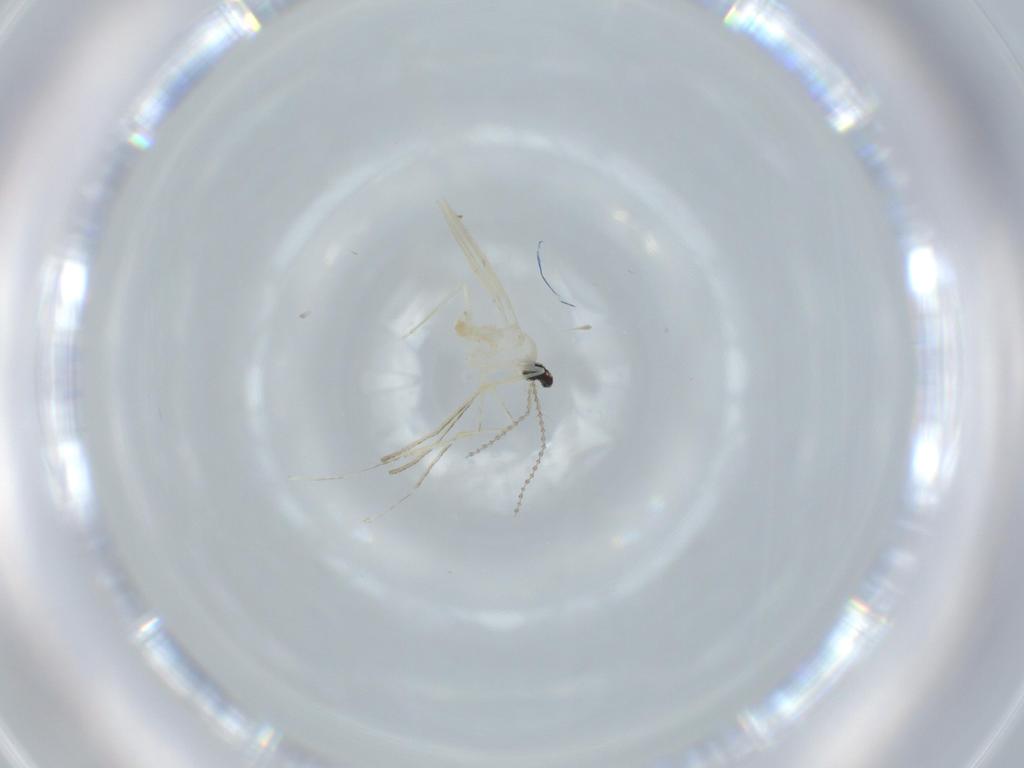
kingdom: Animalia
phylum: Arthropoda
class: Insecta
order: Diptera
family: Cecidomyiidae
